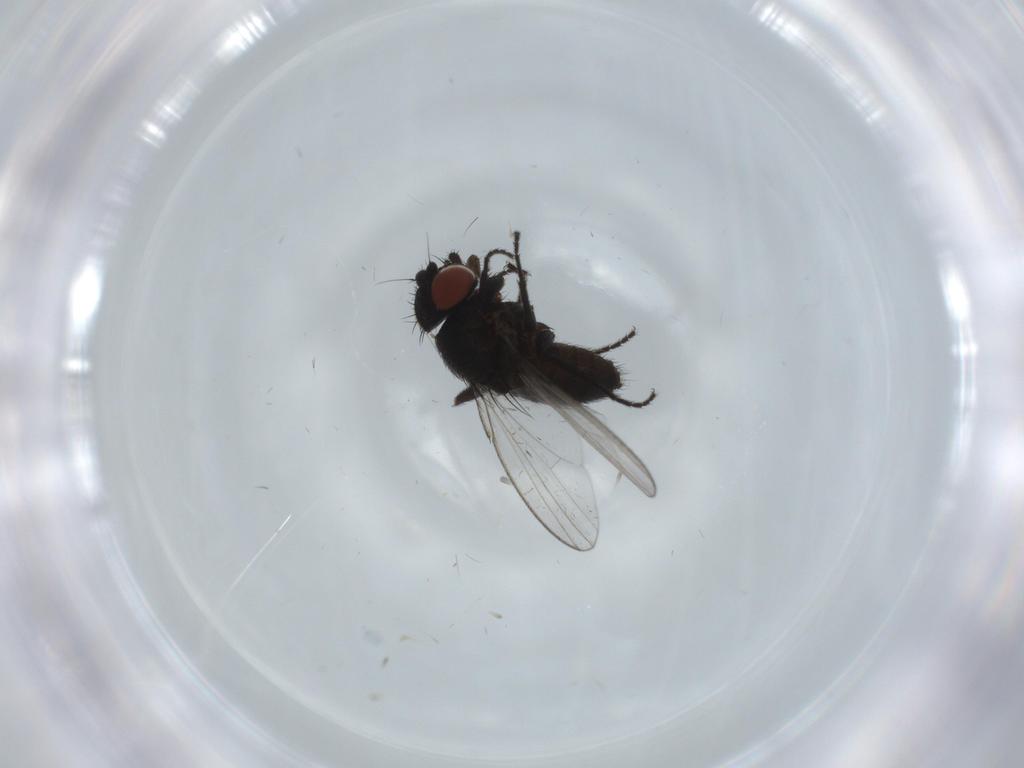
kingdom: Animalia
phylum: Arthropoda
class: Insecta
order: Diptera
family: Milichiidae
